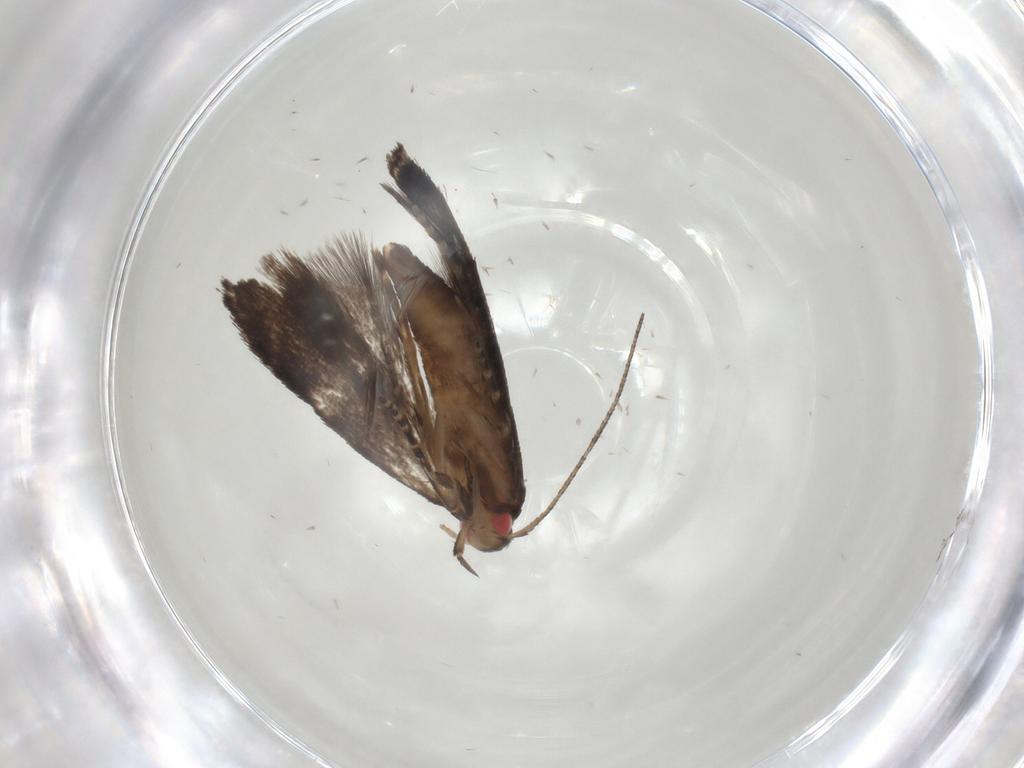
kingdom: Animalia
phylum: Arthropoda
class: Insecta
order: Lepidoptera
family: Gelechiidae
